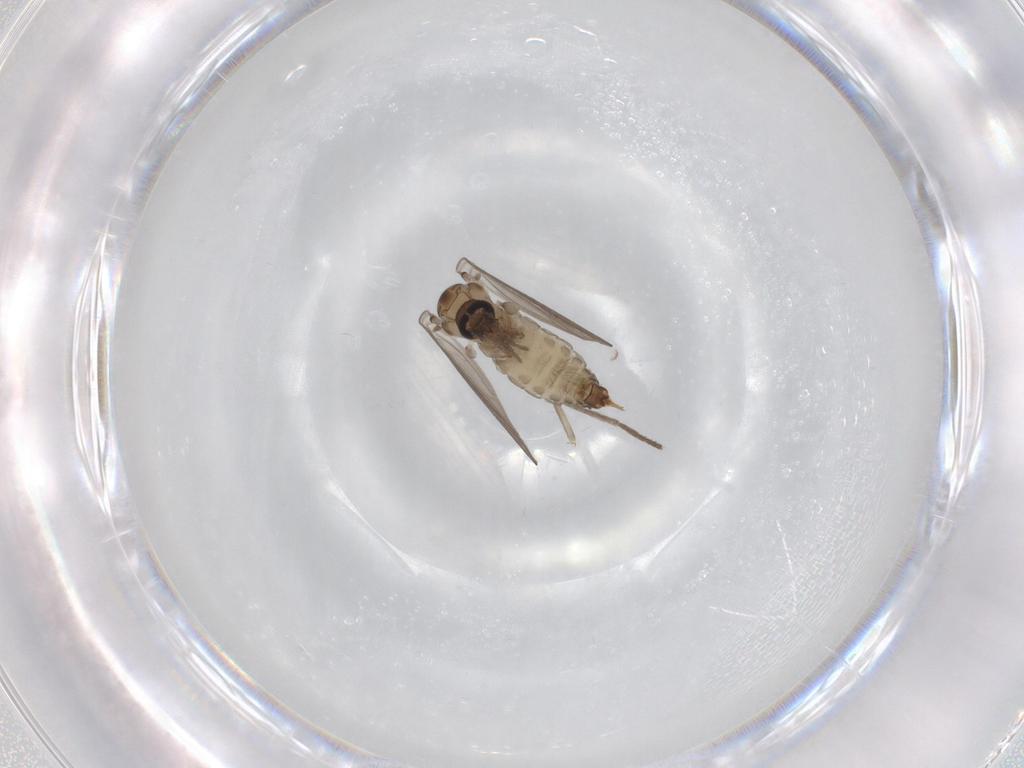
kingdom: Animalia
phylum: Arthropoda
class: Insecta
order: Diptera
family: Psychodidae
